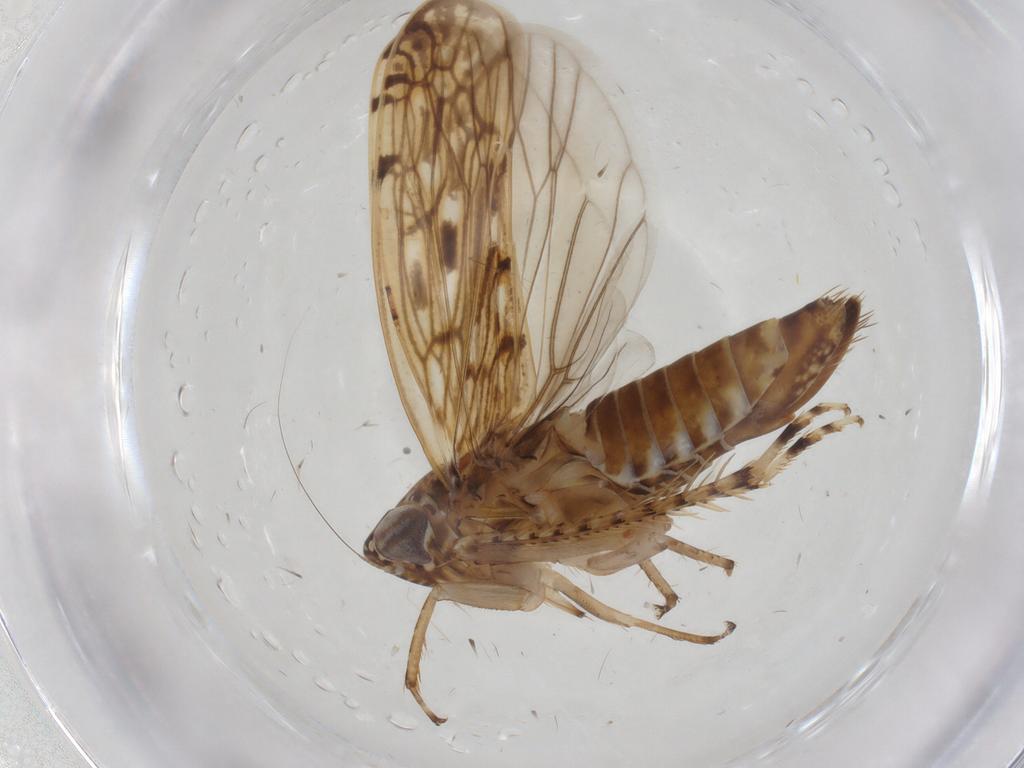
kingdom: Animalia
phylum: Arthropoda
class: Insecta
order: Hemiptera
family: Cicadellidae
